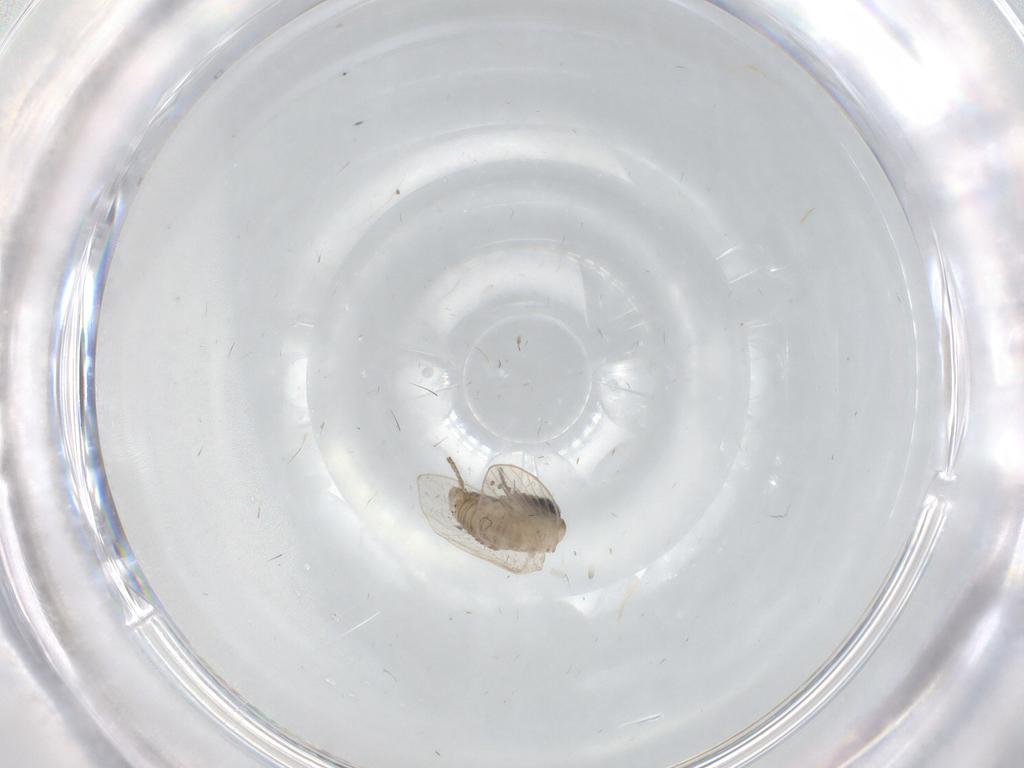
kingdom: Animalia
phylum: Arthropoda
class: Insecta
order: Diptera
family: Psychodidae
